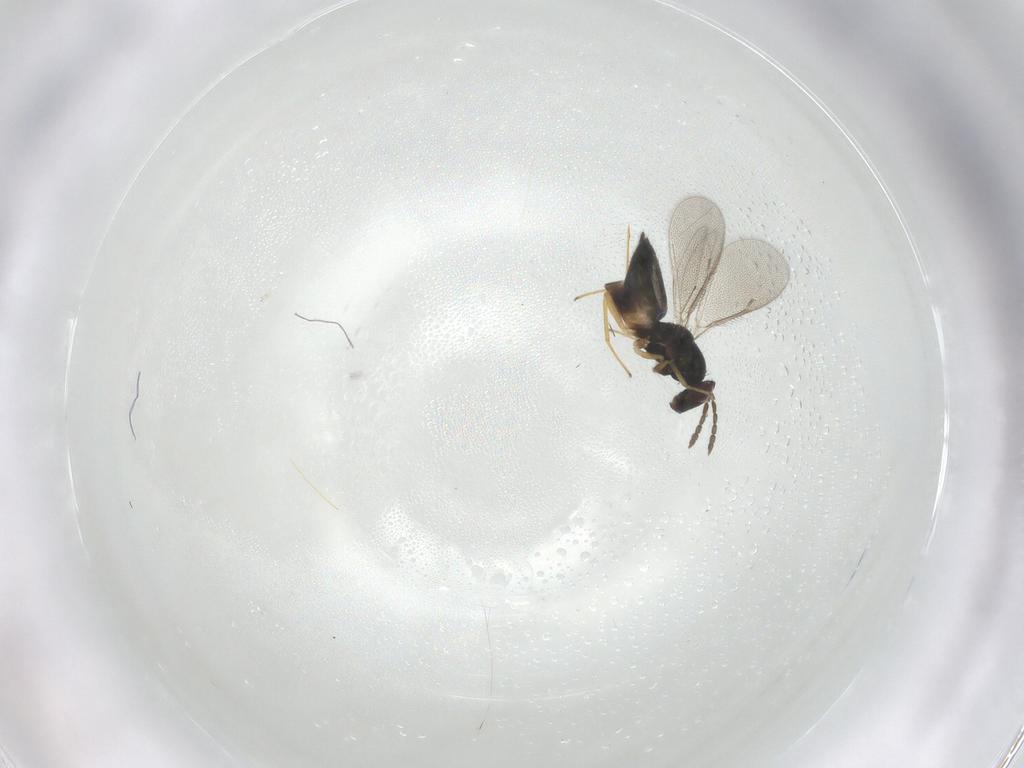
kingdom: Animalia
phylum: Arthropoda
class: Insecta
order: Hymenoptera
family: Eulophidae
